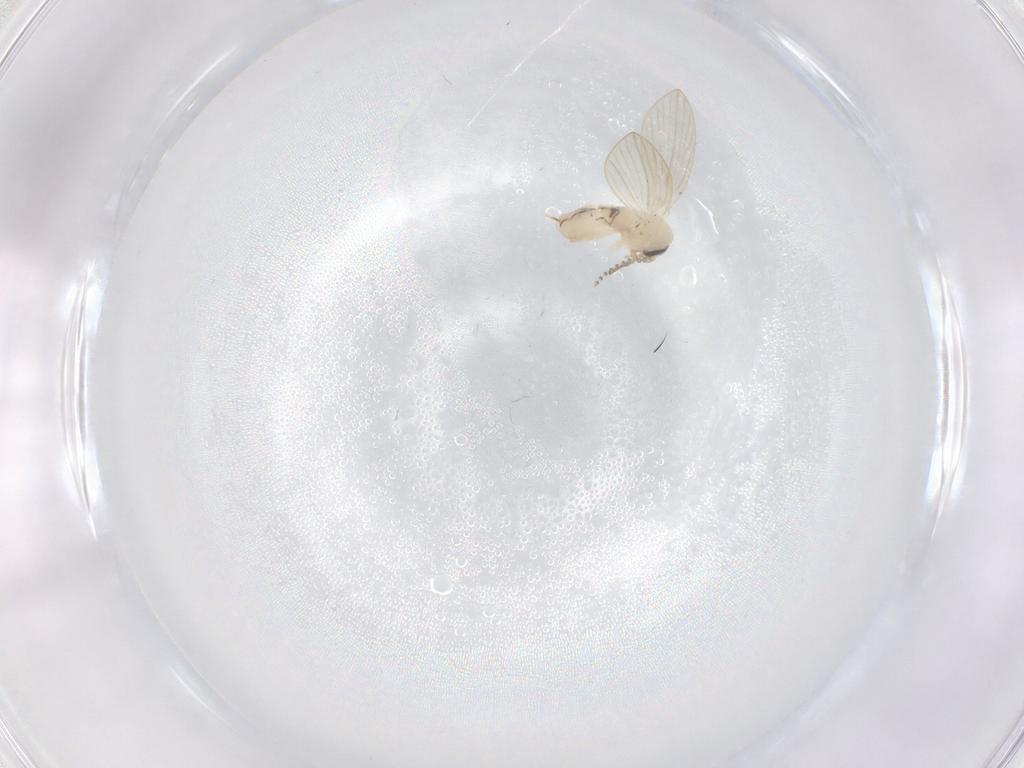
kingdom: Animalia
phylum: Arthropoda
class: Insecta
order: Diptera
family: Psychodidae
